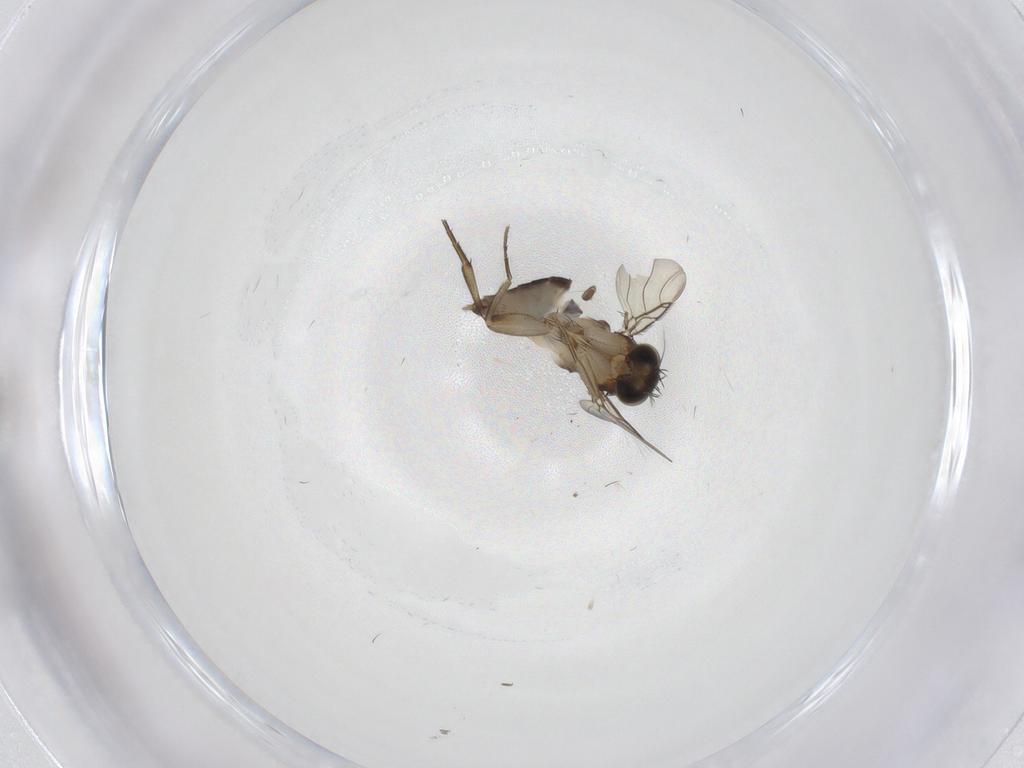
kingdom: Animalia
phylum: Arthropoda
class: Insecta
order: Diptera
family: Phoridae
